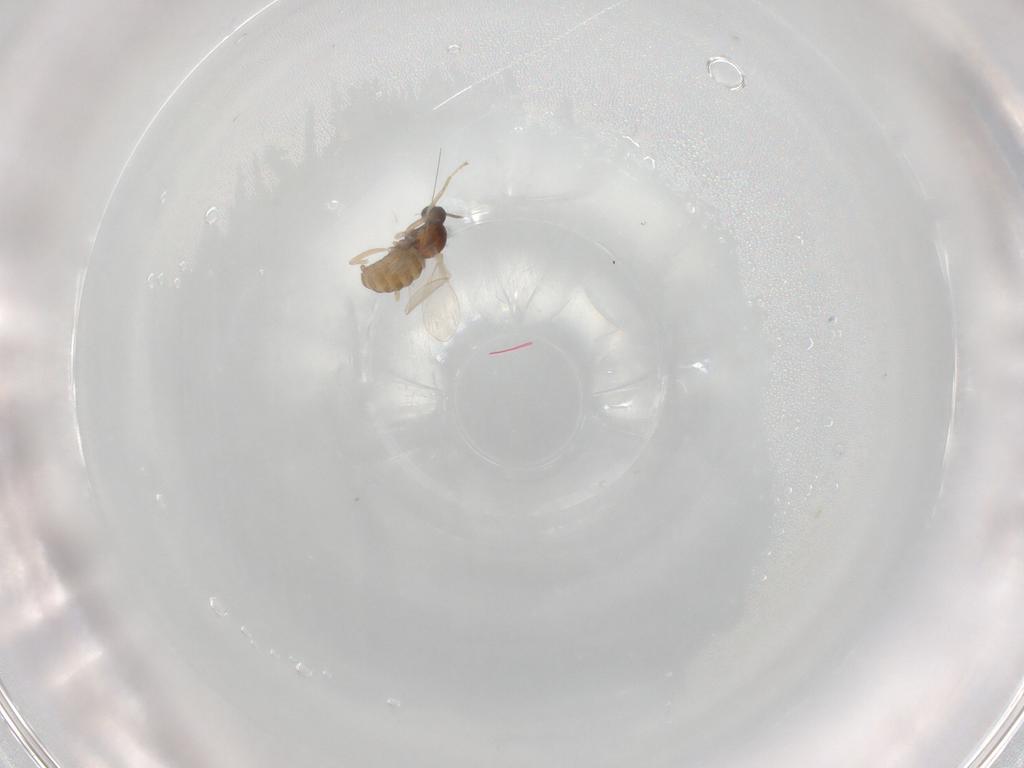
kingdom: Animalia
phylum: Arthropoda
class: Insecta
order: Diptera
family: Cecidomyiidae
